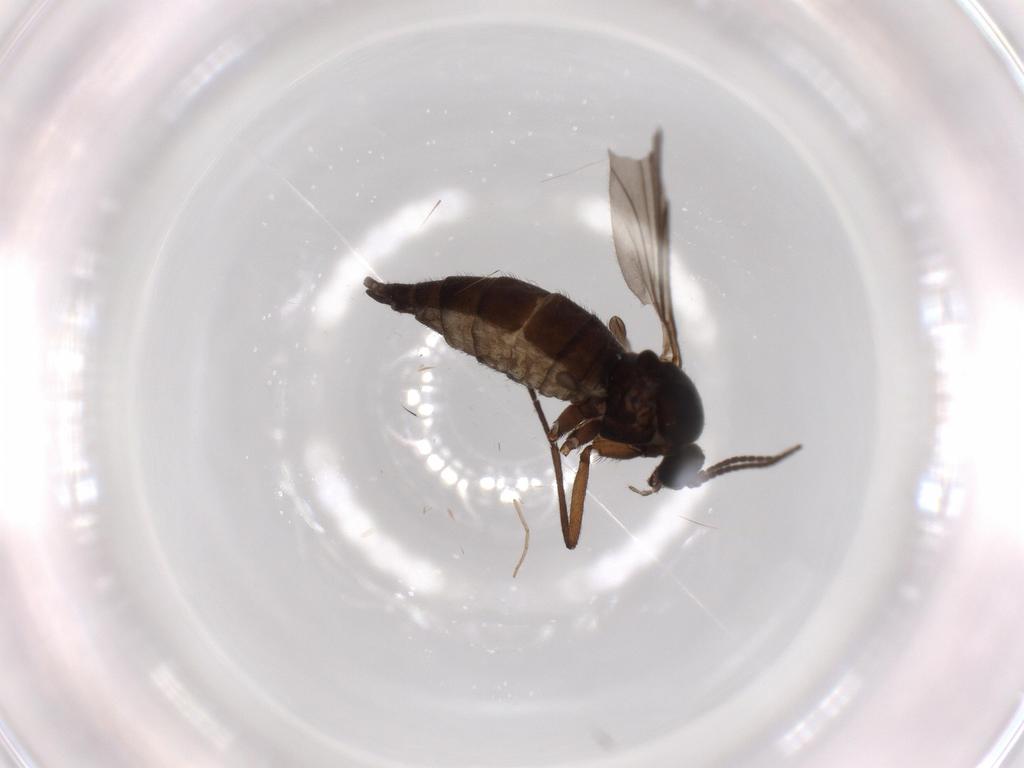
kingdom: Animalia
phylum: Arthropoda
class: Insecta
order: Diptera
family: Sciaridae
